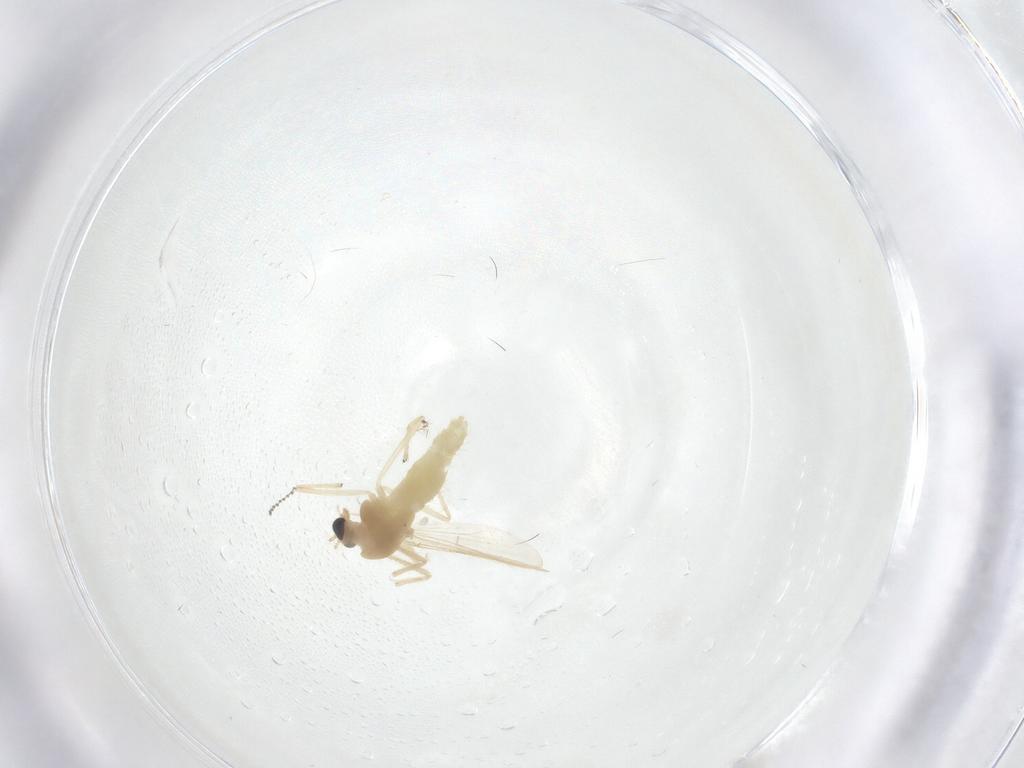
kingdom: Animalia
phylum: Arthropoda
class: Insecta
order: Diptera
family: Chironomidae
